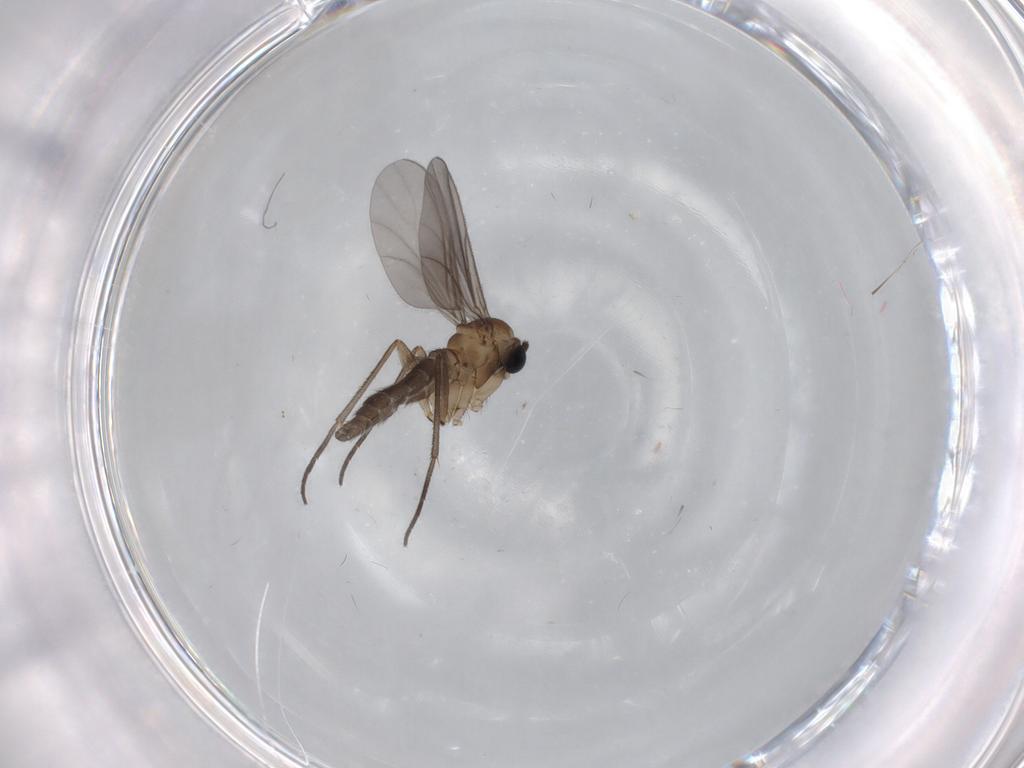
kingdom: Animalia
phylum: Arthropoda
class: Insecta
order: Diptera
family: Sciaridae
